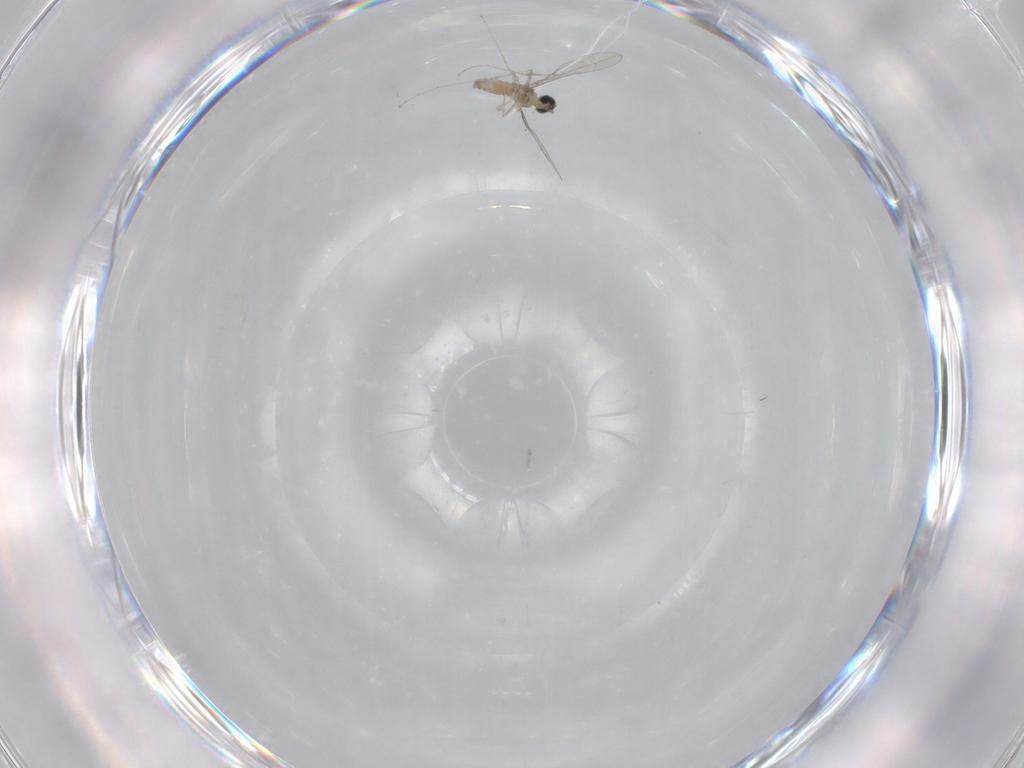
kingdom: Animalia
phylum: Arthropoda
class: Insecta
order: Diptera
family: Cecidomyiidae
